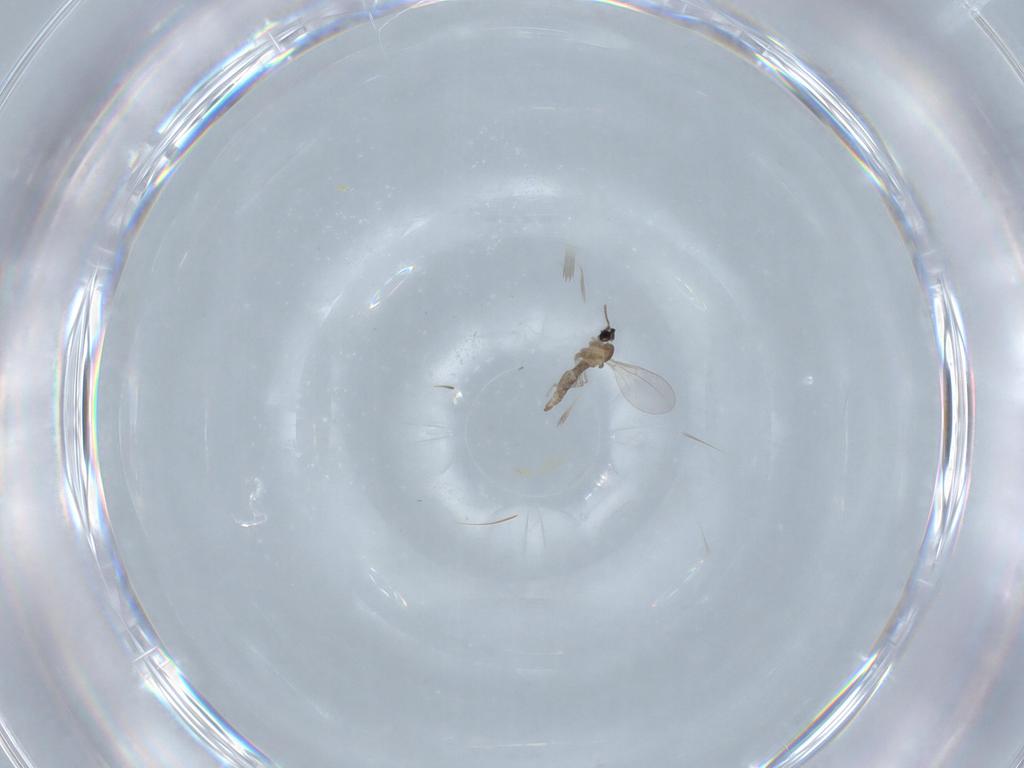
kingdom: Animalia
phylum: Arthropoda
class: Insecta
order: Diptera
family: Cecidomyiidae
